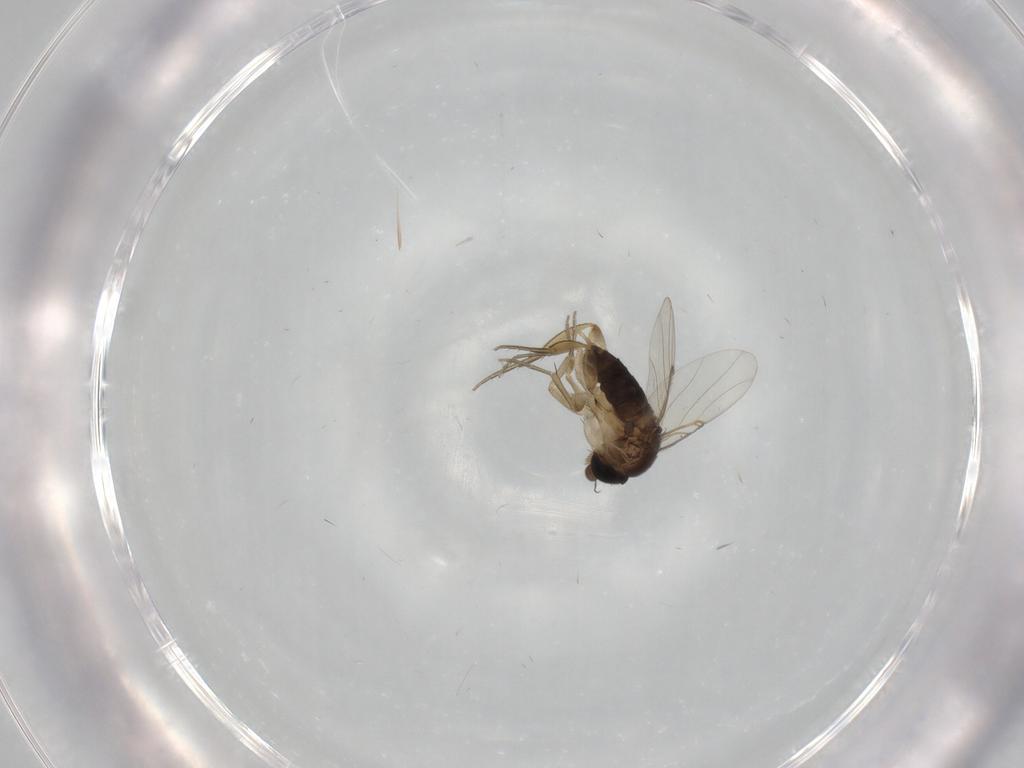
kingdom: Animalia
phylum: Arthropoda
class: Insecta
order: Diptera
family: Phoridae
